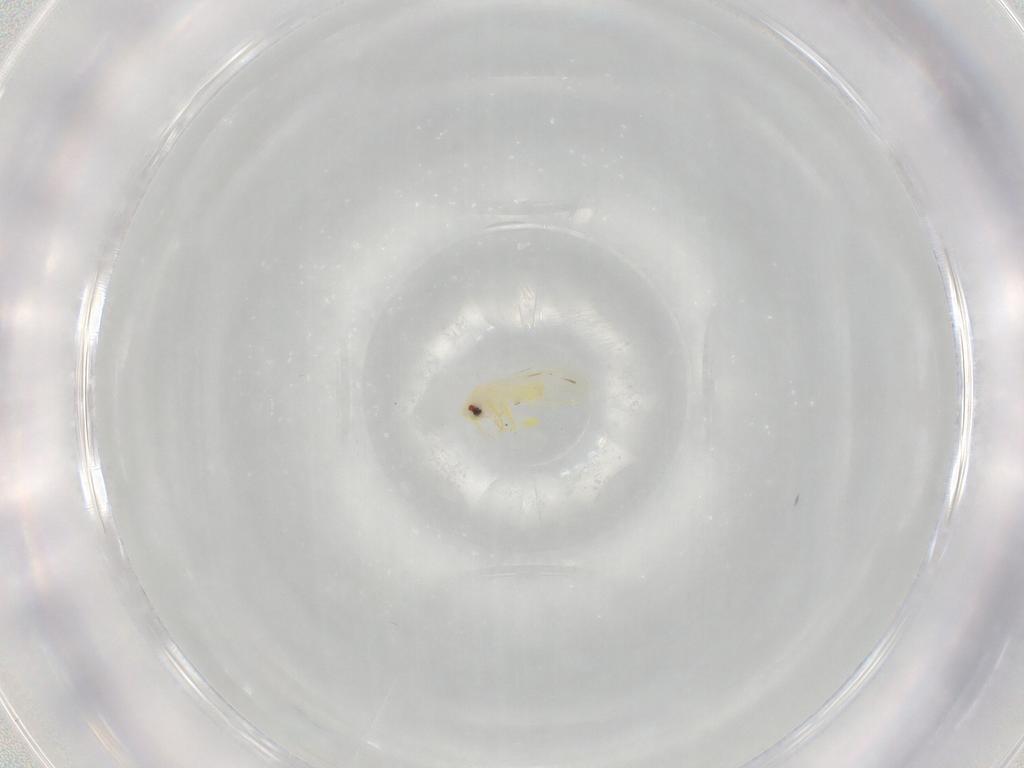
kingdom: Animalia
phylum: Arthropoda
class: Insecta
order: Hemiptera
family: Aleyrodidae
